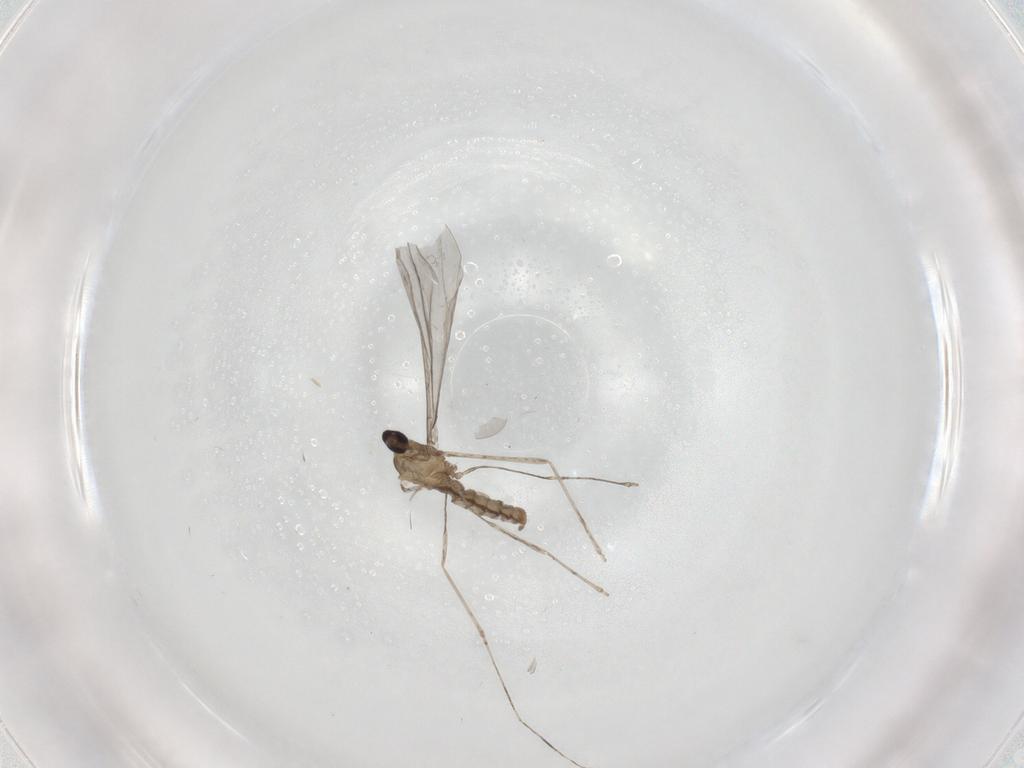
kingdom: Animalia
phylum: Arthropoda
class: Insecta
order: Diptera
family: Cecidomyiidae
